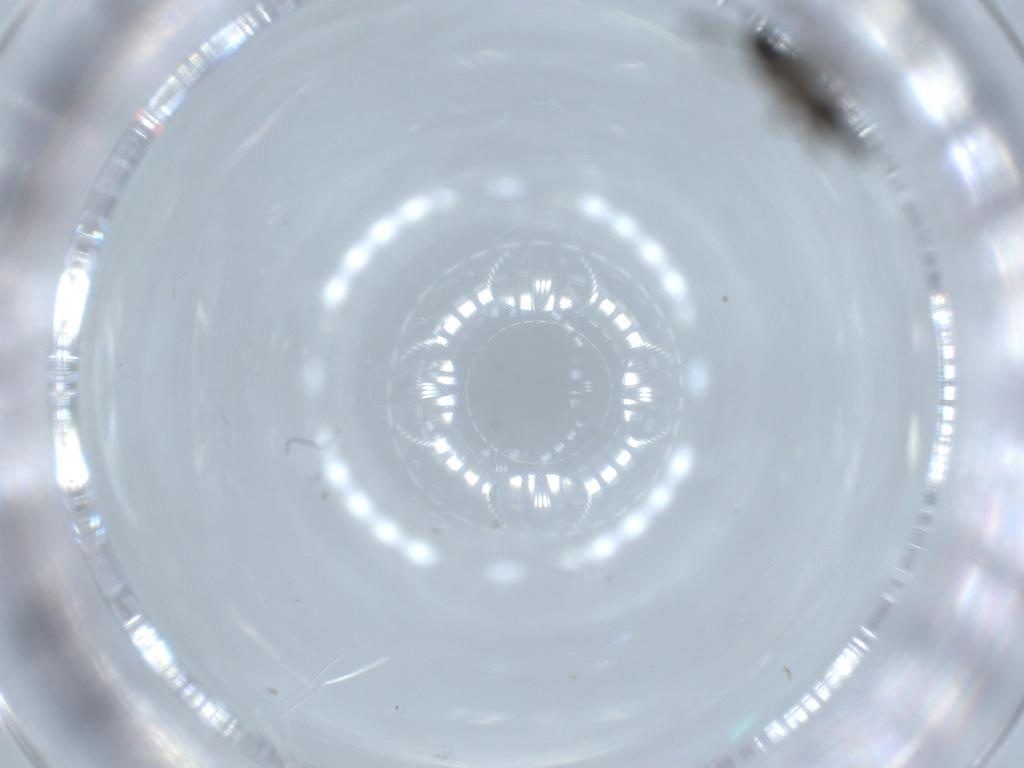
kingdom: Animalia
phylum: Arthropoda
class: Insecta
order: Diptera
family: Sciaridae
